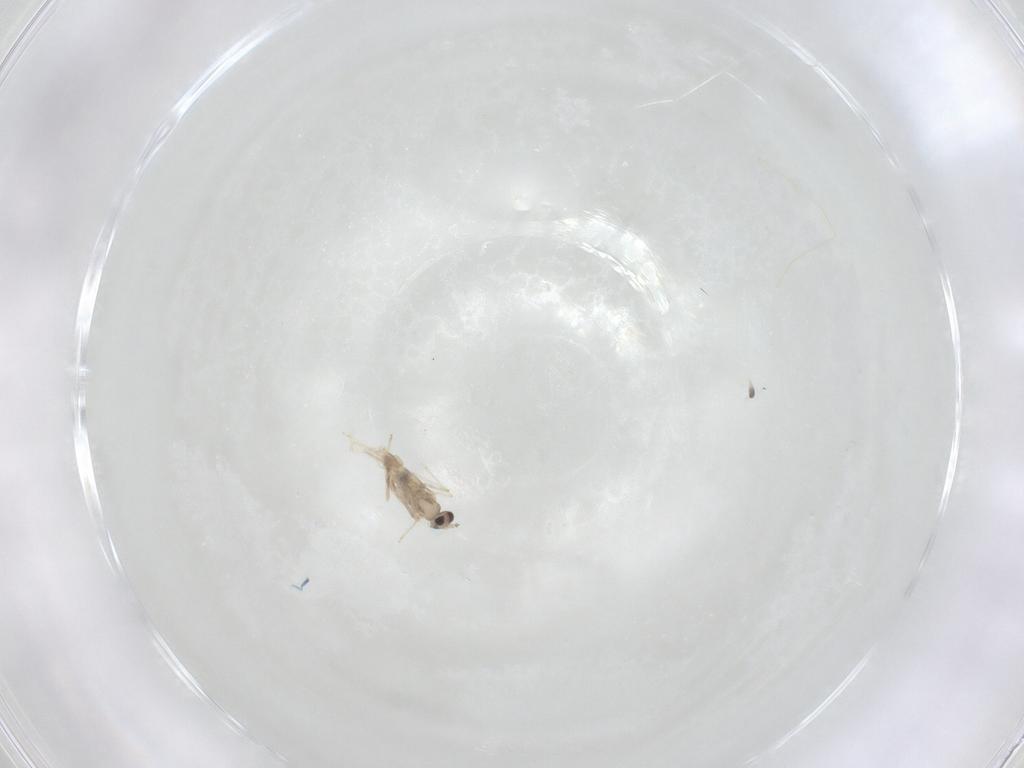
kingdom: Animalia
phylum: Arthropoda
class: Insecta
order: Diptera
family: Cecidomyiidae
